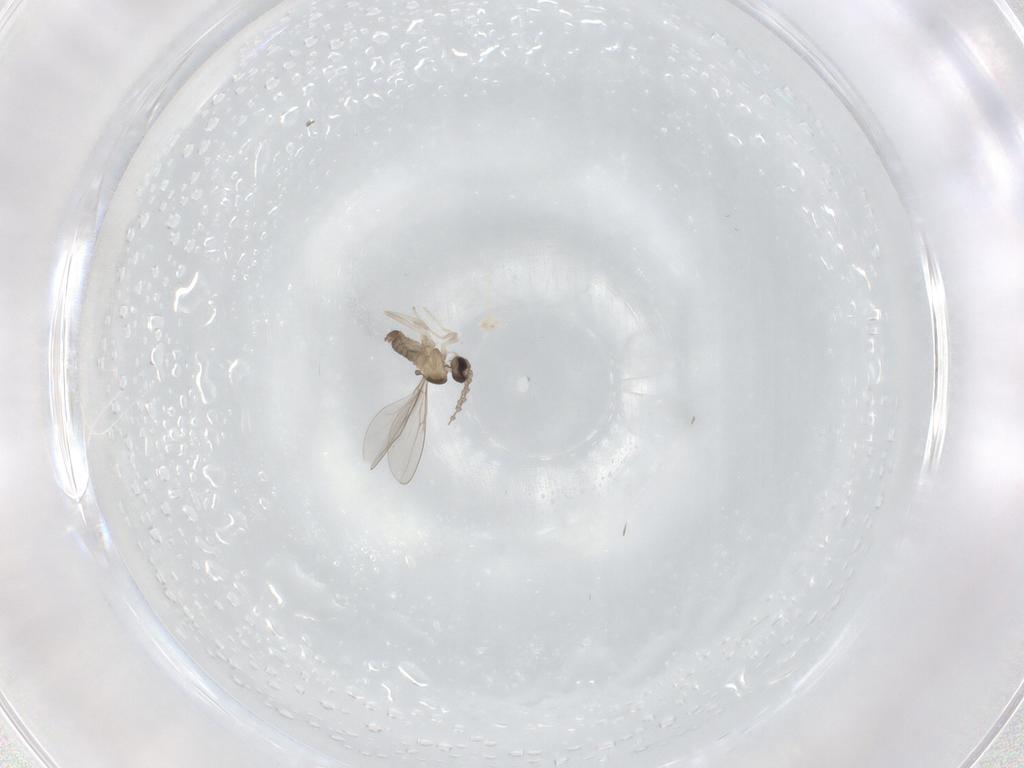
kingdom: Animalia
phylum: Arthropoda
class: Insecta
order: Diptera
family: Cecidomyiidae
